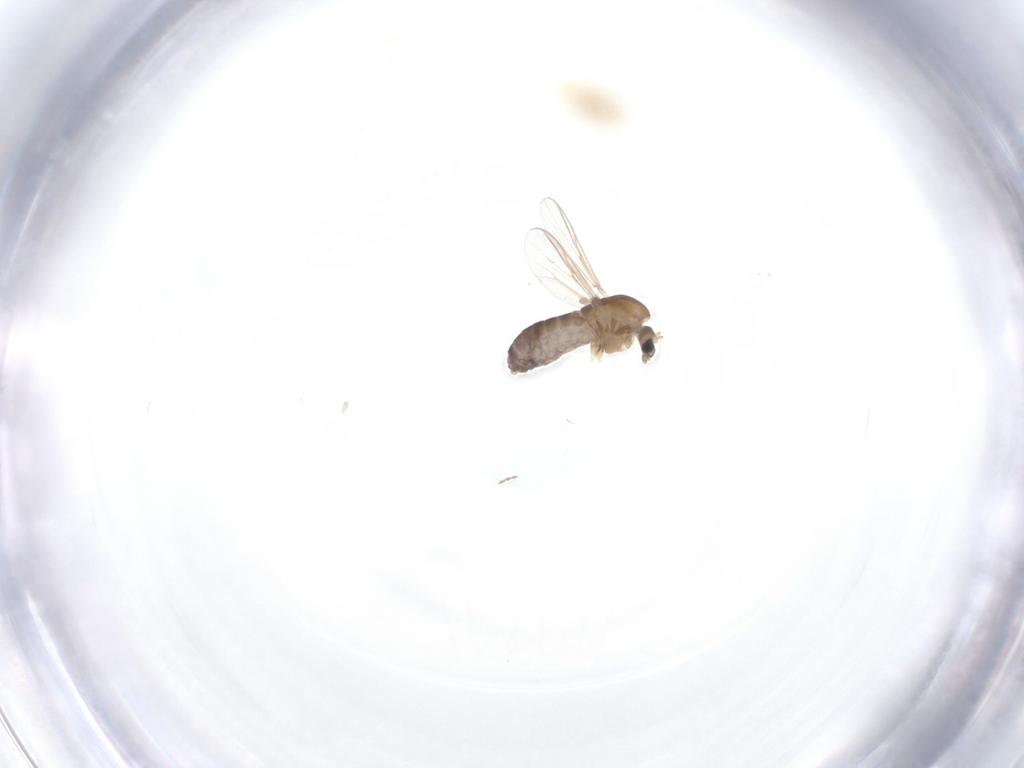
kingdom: Animalia
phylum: Arthropoda
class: Insecta
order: Diptera
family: Chironomidae
